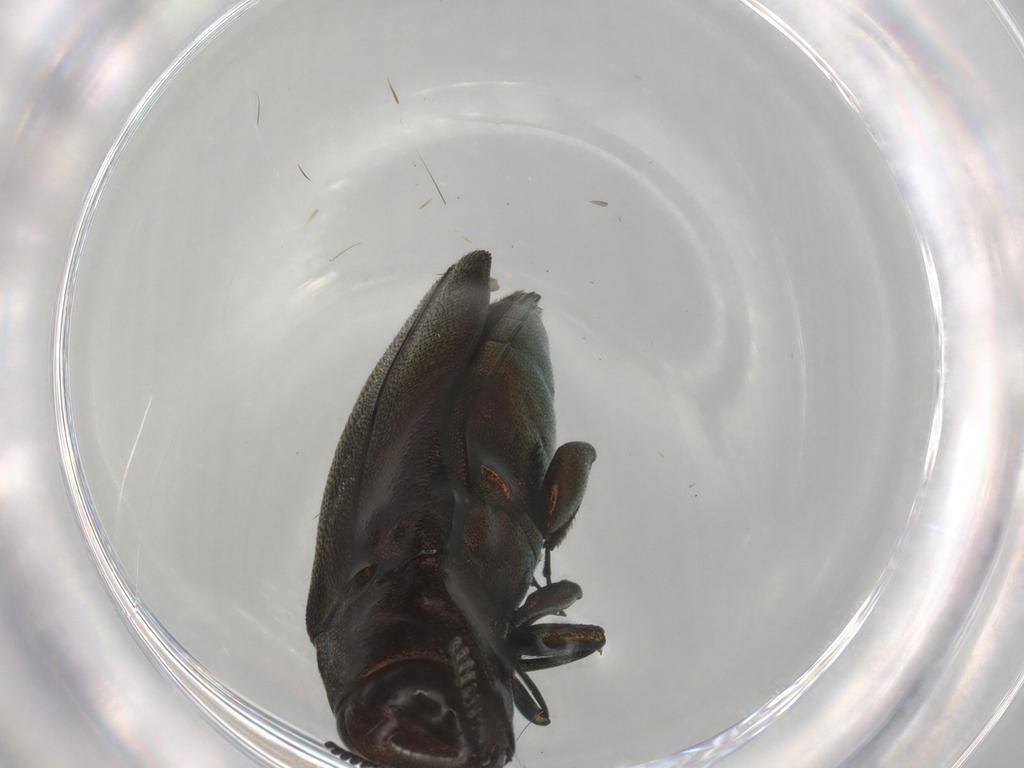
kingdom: Animalia
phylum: Arthropoda
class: Insecta
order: Coleoptera
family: Buprestidae
